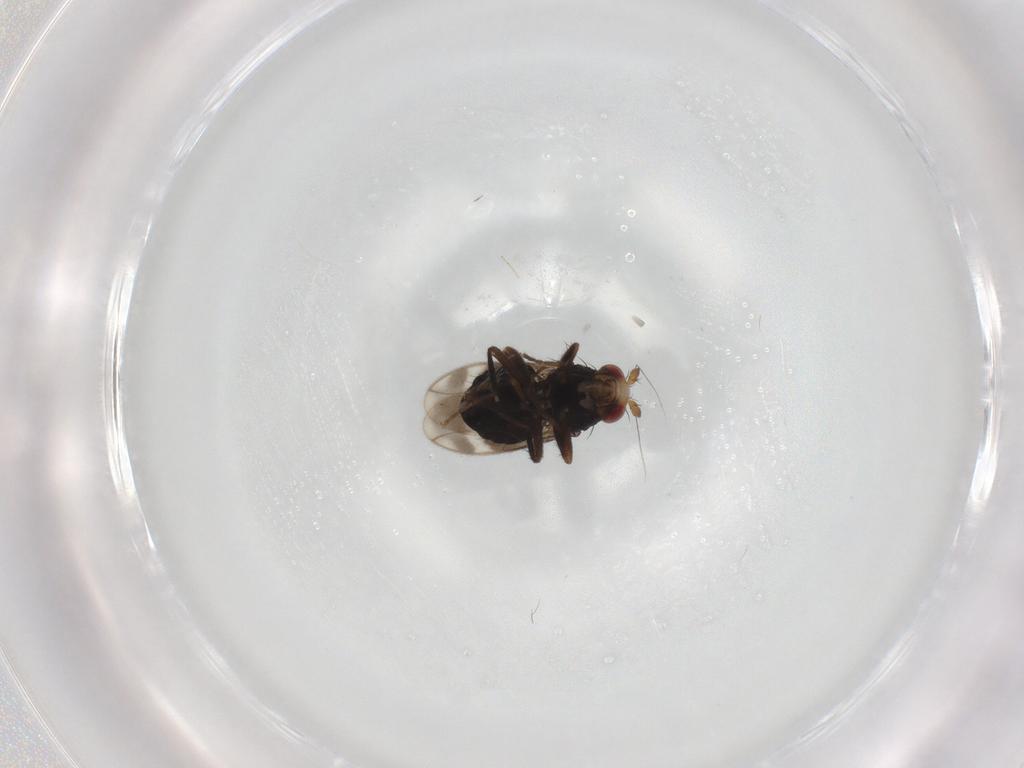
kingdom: Animalia
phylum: Arthropoda
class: Insecta
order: Diptera
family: Sphaeroceridae
